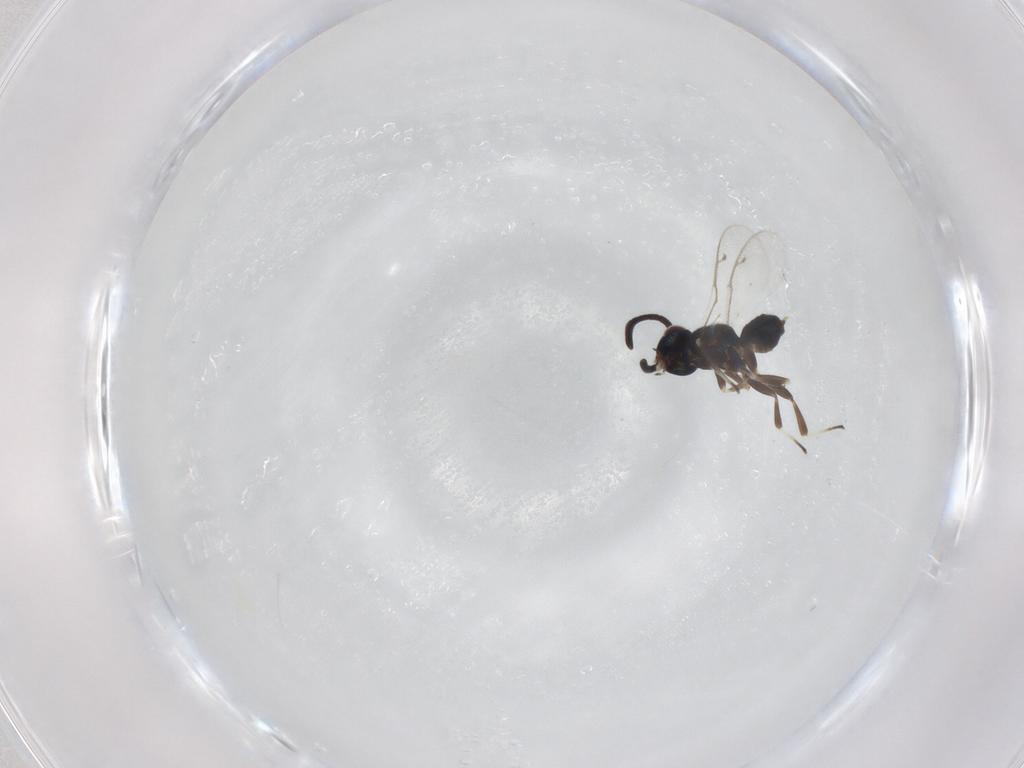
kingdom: Animalia
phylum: Arthropoda
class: Insecta
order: Hymenoptera
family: Eupelmidae
